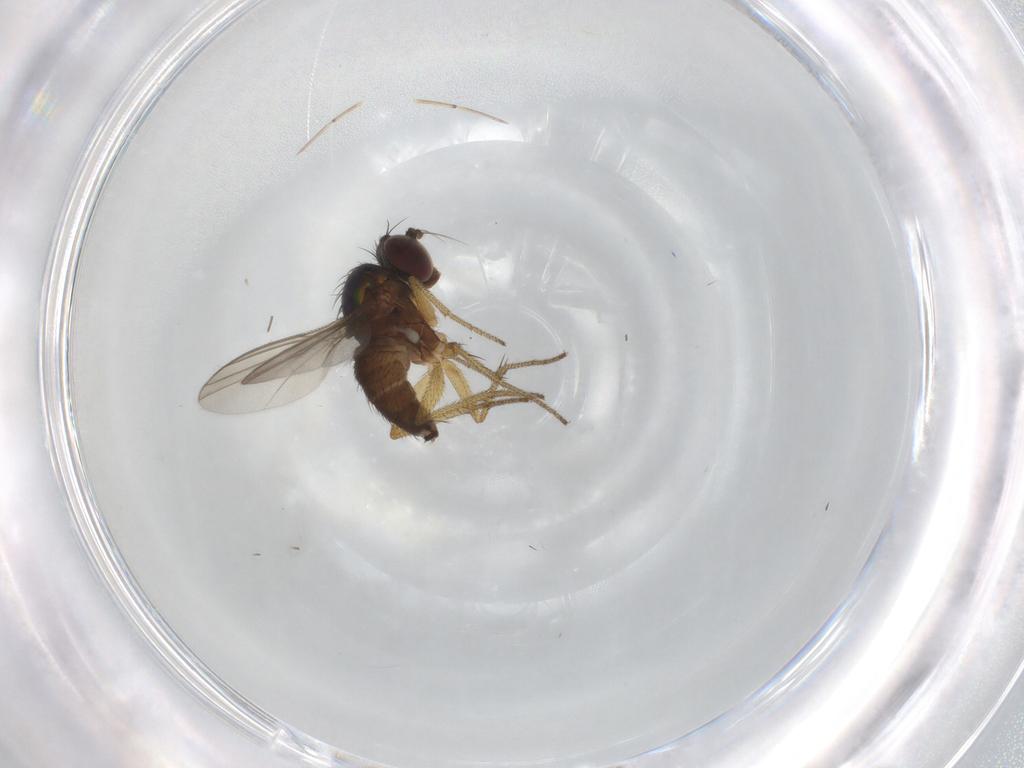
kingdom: Animalia
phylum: Arthropoda
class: Insecta
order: Diptera
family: Dolichopodidae
